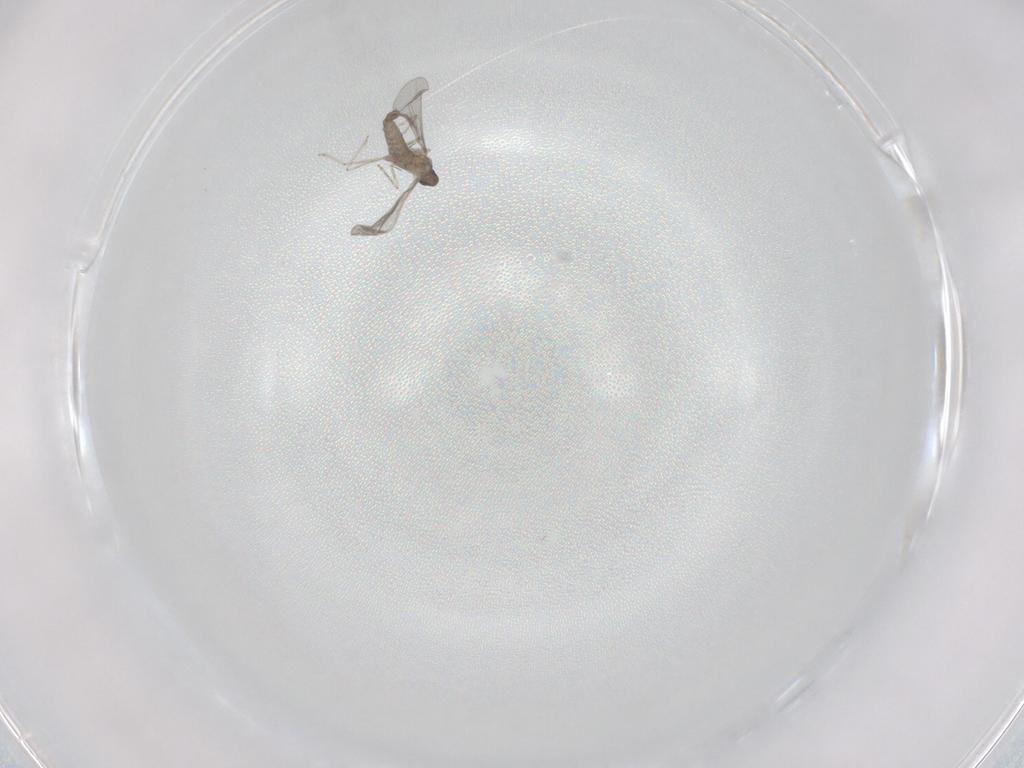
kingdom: Animalia
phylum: Arthropoda
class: Insecta
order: Diptera
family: Cecidomyiidae
